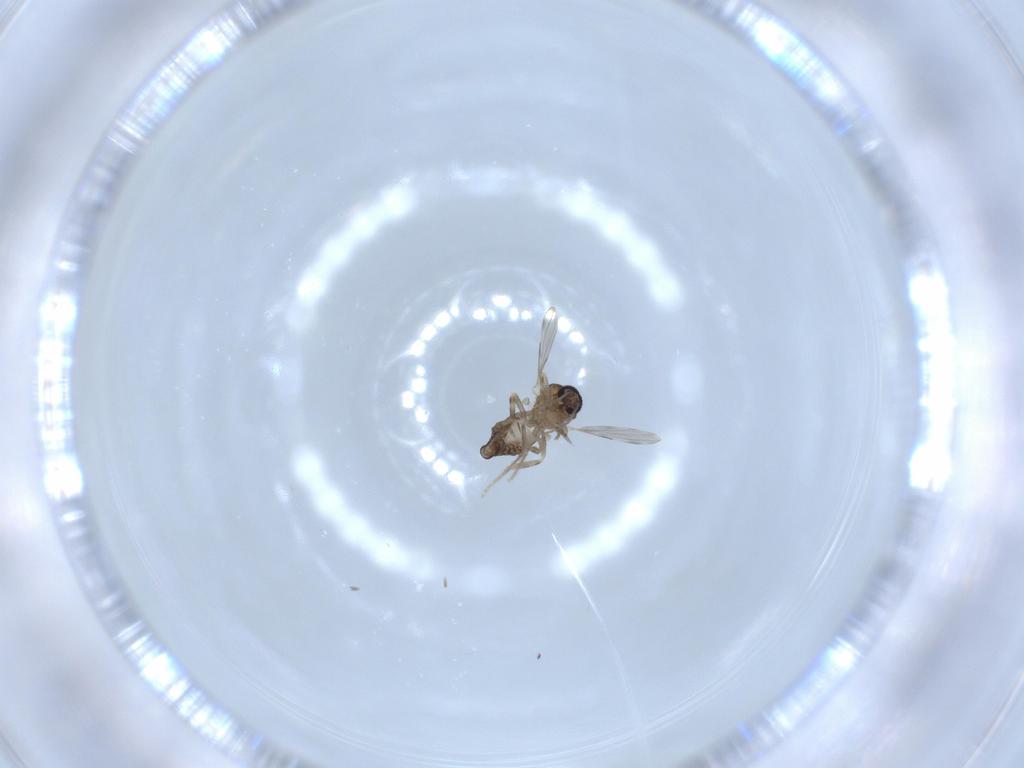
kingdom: Animalia
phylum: Arthropoda
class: Insecta
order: Diptera
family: Ceratopogonidae
